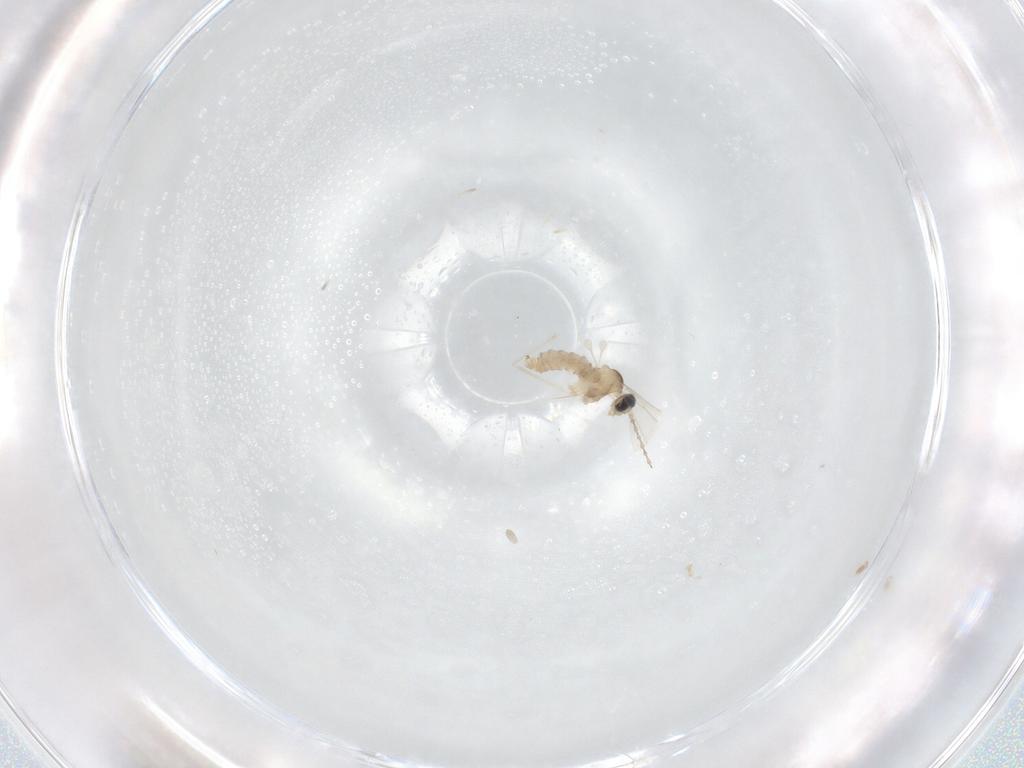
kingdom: Animalia
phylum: Arthropoda
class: Insecta
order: Diptera
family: Cecidomyiidae
